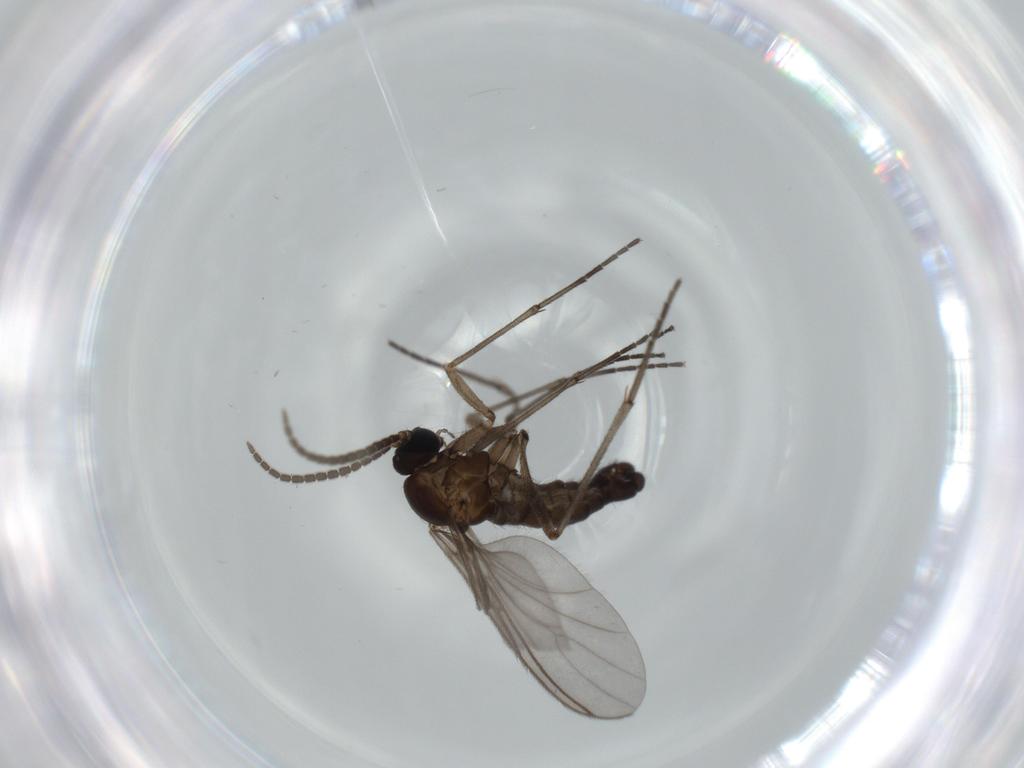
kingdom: Animalia
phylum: Arthropoda
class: Insecta
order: Diptera
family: Sciaridae
